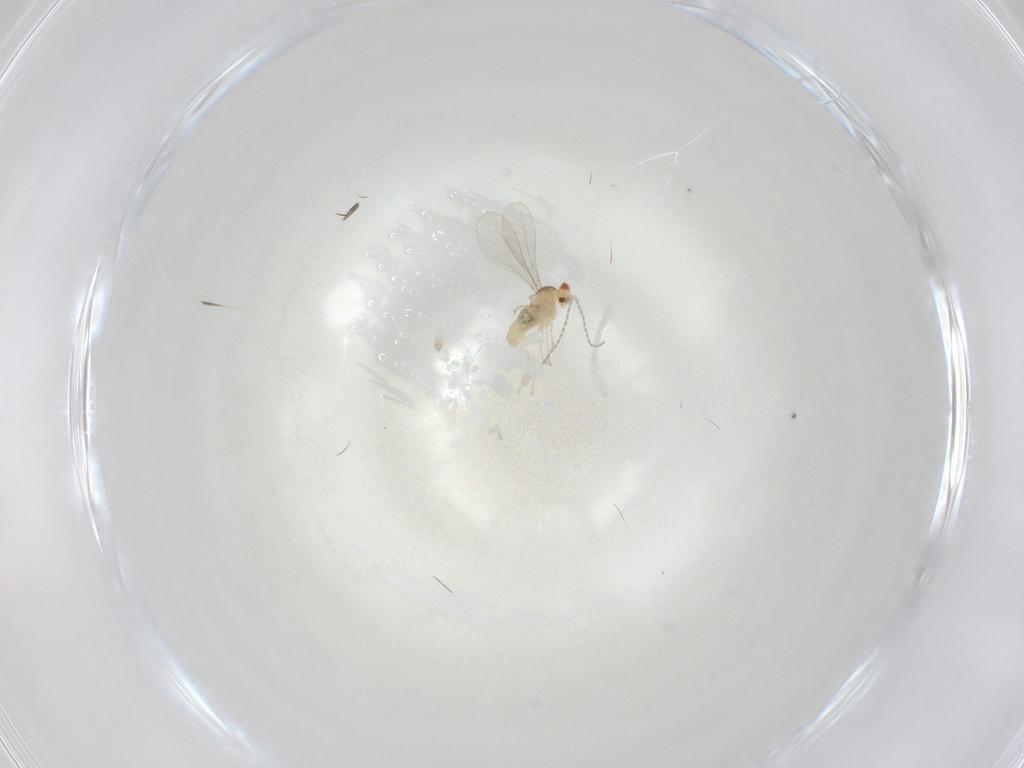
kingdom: Animalia
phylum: Arthropoda
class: Insecta
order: Diptera
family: Cecidomyiidae
